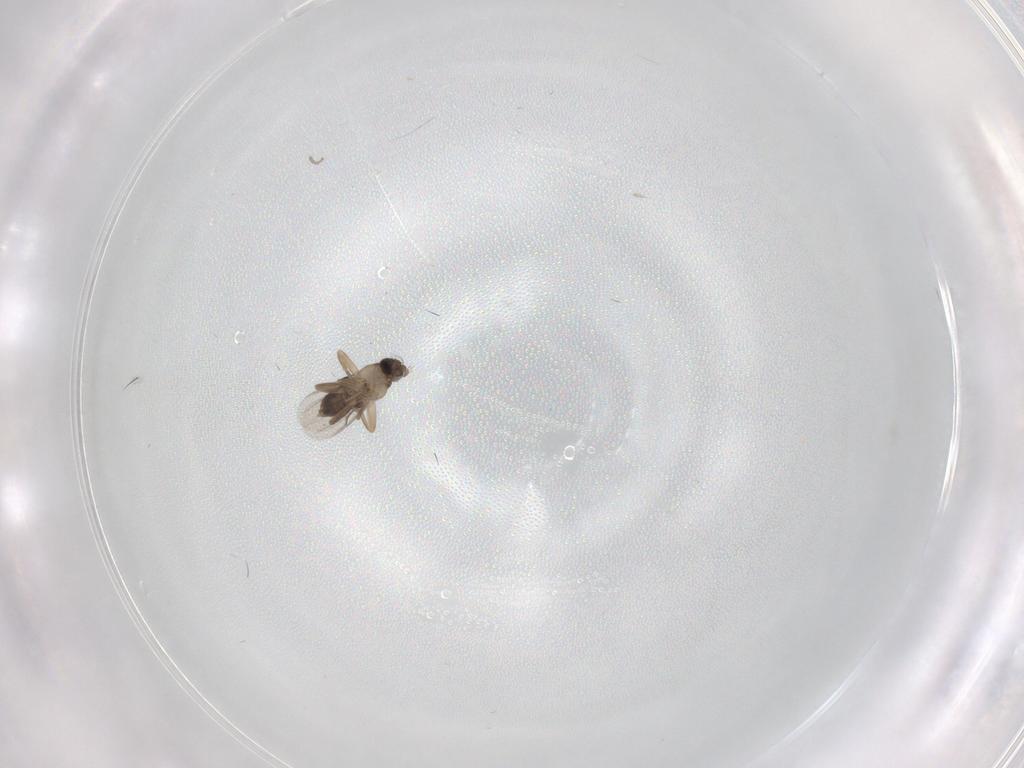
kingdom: Animalia
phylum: Arthropoda
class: Insecta
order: Diptera
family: Phoridae
